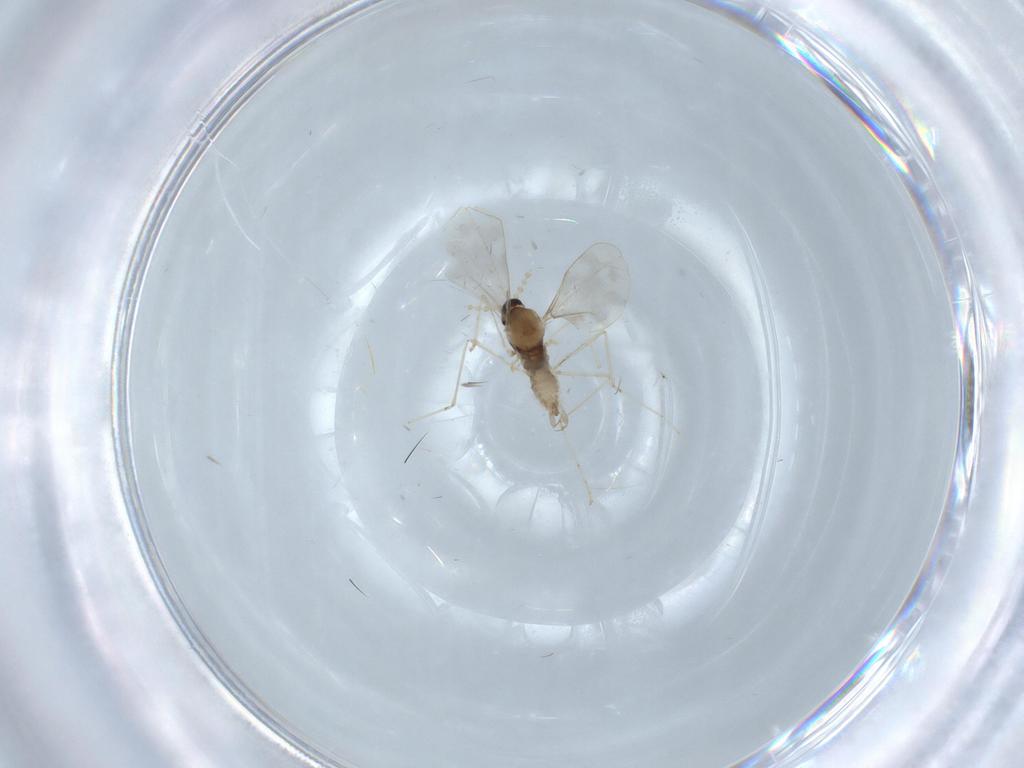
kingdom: Animalia
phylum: Arthropoda
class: Insecta
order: Diptera
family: Cecidomyiidae
